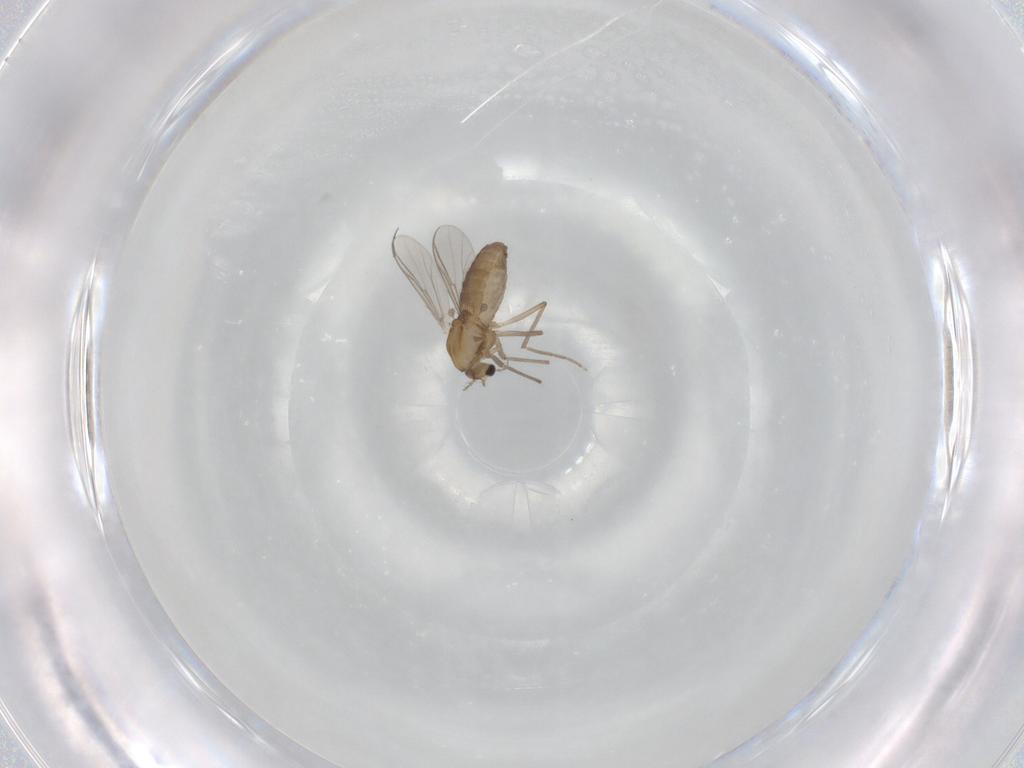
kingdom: Animalia
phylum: Arthropoda
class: Insecta
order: Diptera
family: Chironomidae
